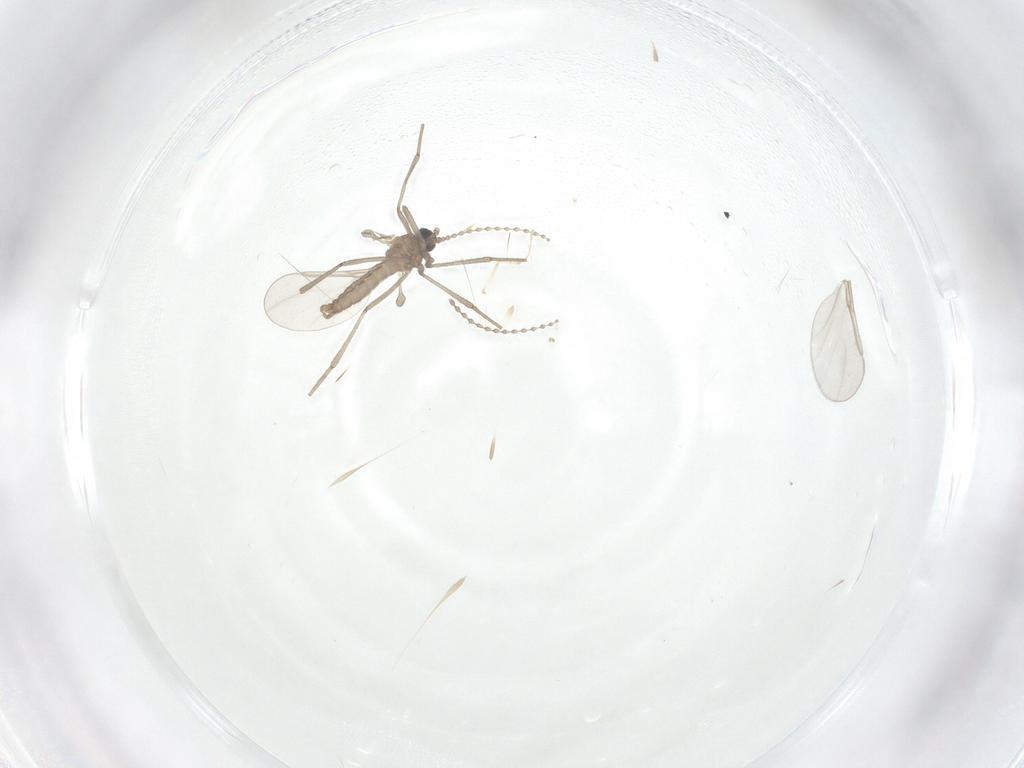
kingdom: Animalia
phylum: Arthropoda
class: Insecta
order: Diptera
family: Cecidomyiidae
